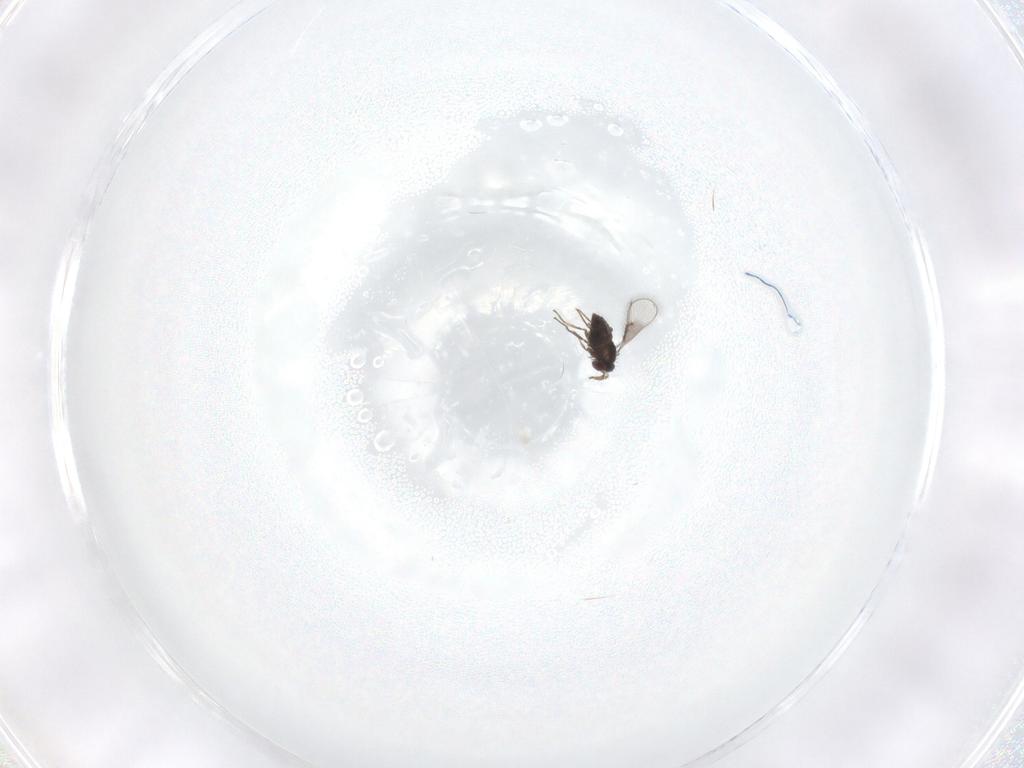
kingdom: Animalia
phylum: Arthropoda
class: Insecta
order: Hymenoptera
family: Trichogrammatidae
